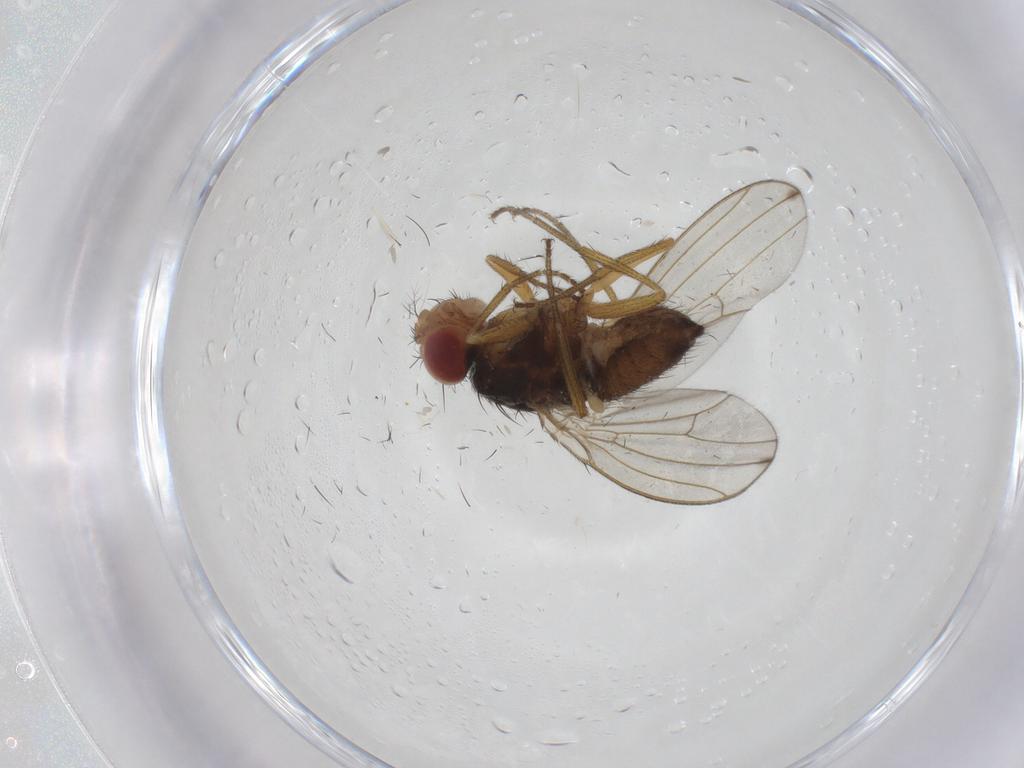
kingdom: Animalia
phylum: Arthropoda
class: Insecta
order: Diptera
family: Drosophilidae
